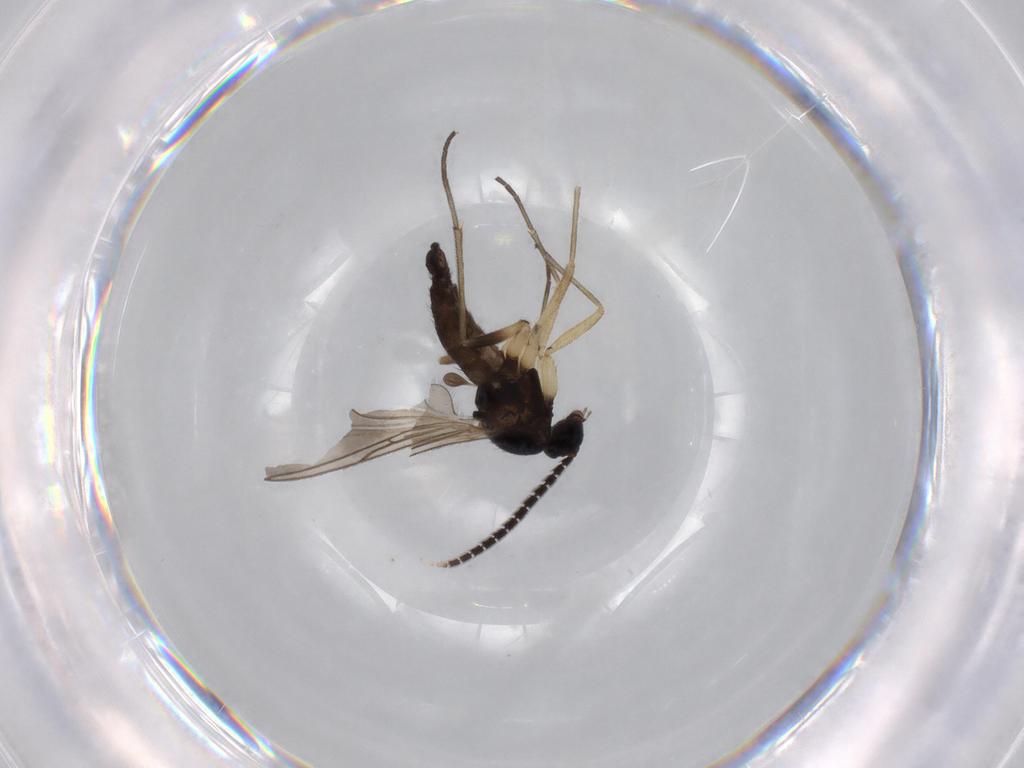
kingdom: Animalia
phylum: Arthropoda
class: Insecta
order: Diptera
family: Sciaridae
